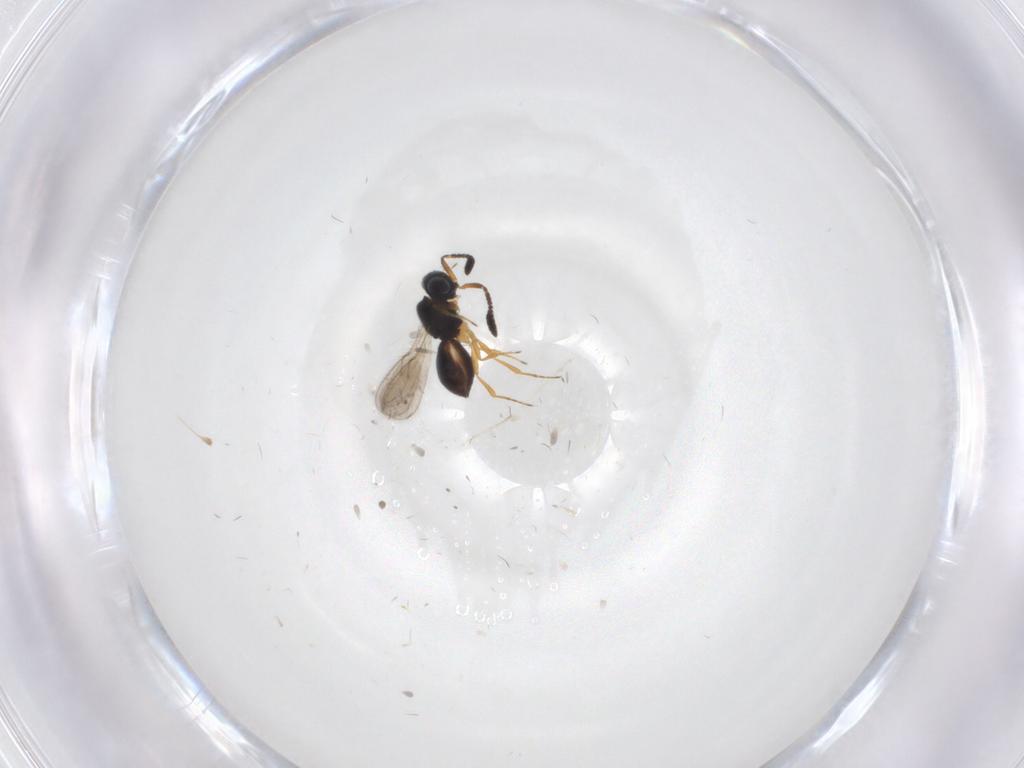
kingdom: Animalia
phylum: Arthropoda
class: Insecta
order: Hymenoptera
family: Scelionidae
